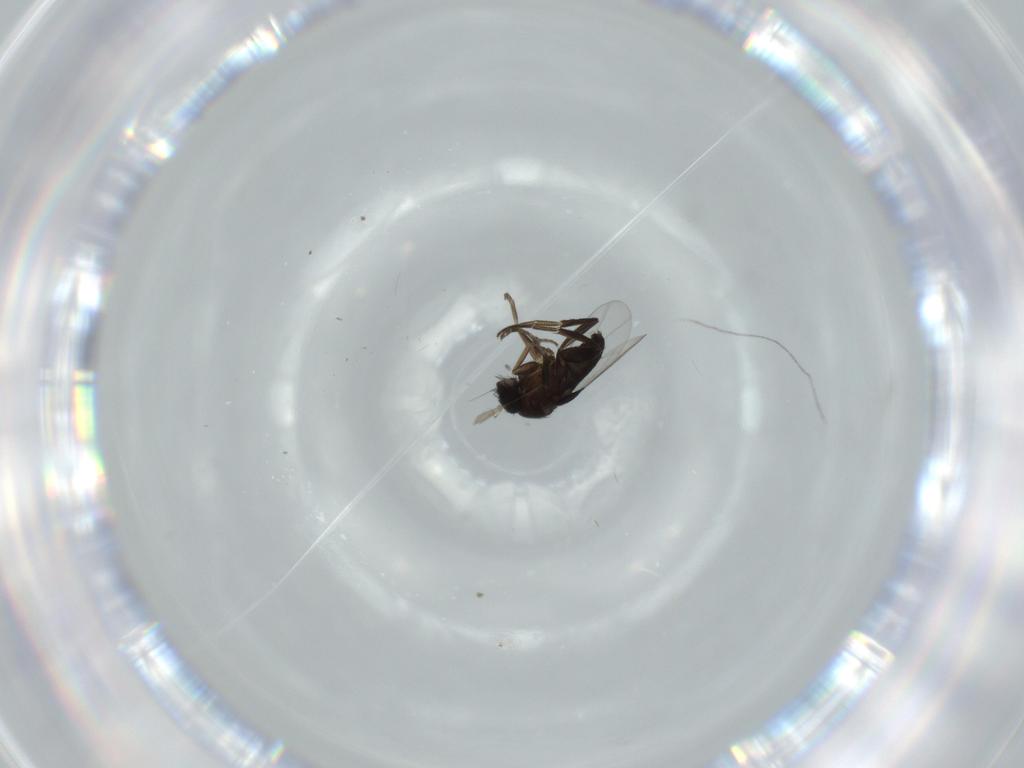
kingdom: Animalia
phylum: Arthropoda
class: Insecta
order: Diptera
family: Phoridae
